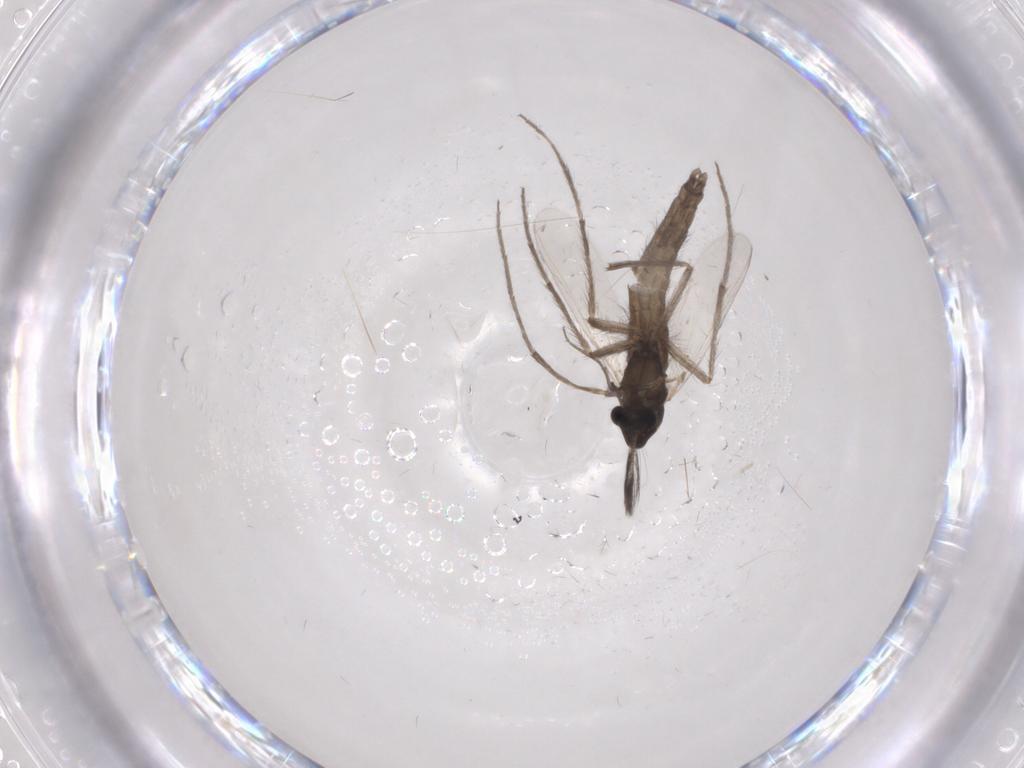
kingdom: Animalia
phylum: Arthropoda
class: Insecta
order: Diptera
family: Chironomidae
